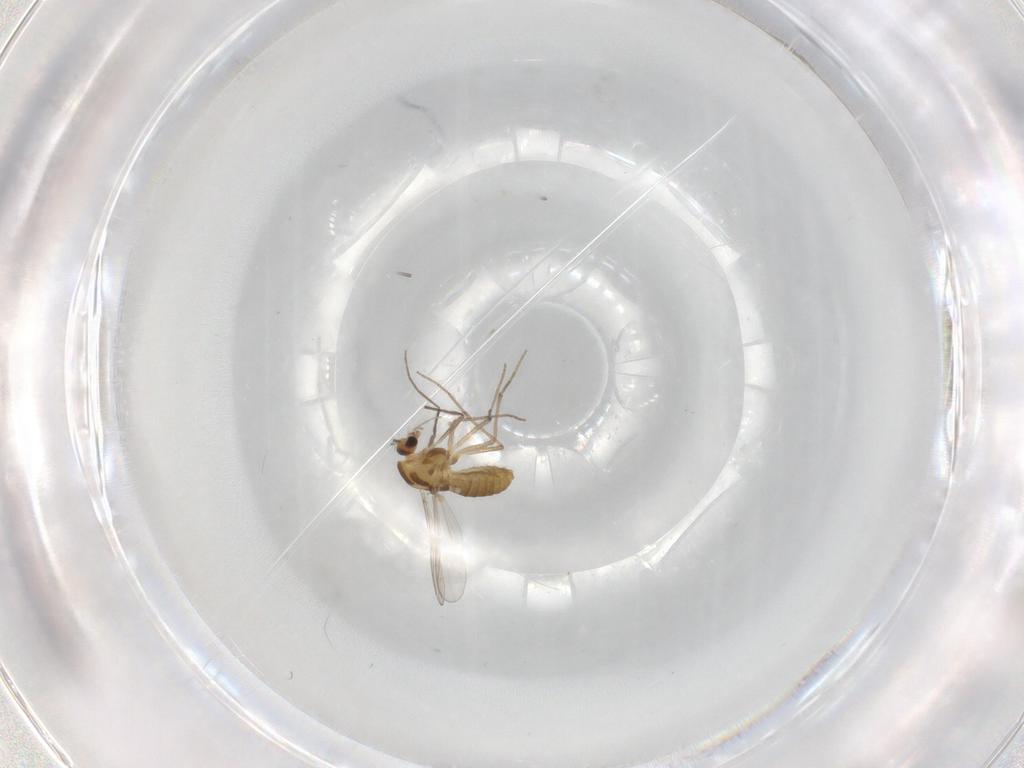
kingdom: Animalia
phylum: Arthropoda
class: Insecta
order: Diptera
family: Chironomidae
